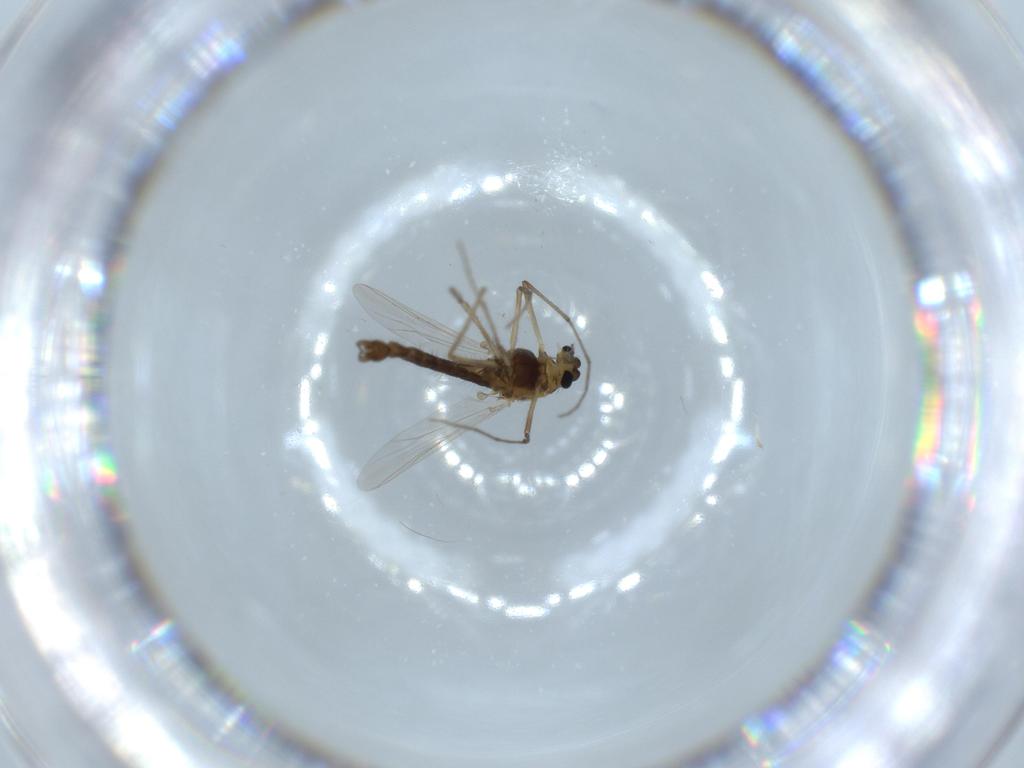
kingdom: Animalia
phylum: Arthropoda
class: Insecta
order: Diptera
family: Chironomidae
